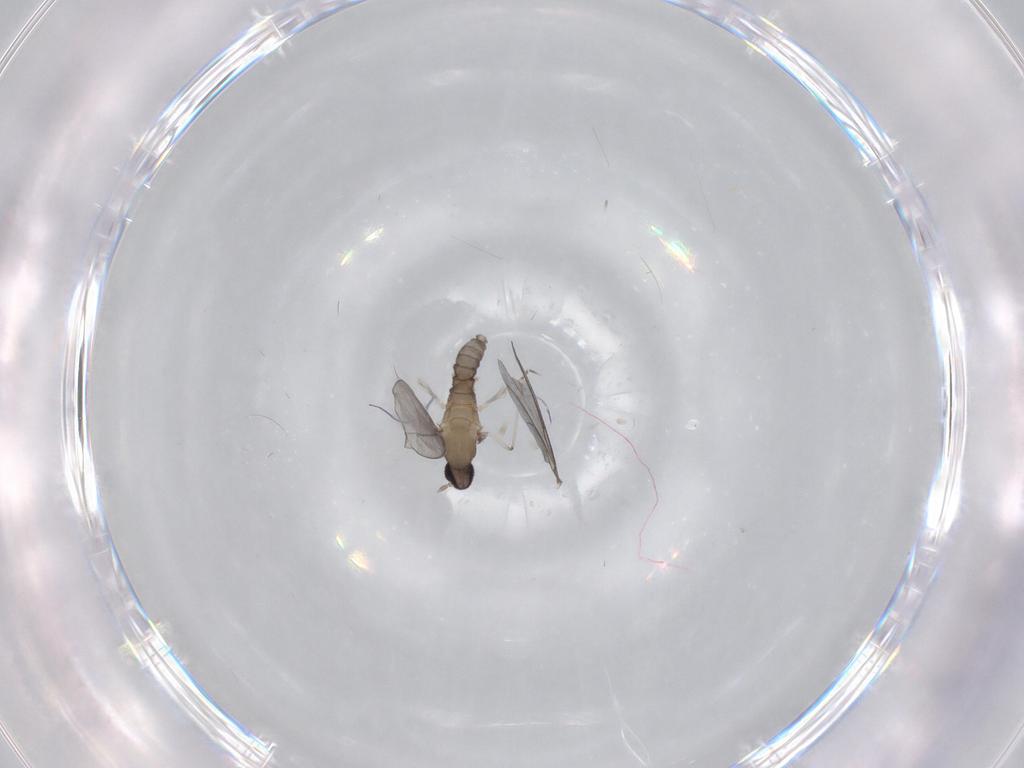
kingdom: Animalia
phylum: Arthropoda
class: Insecta
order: Diptera
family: Cecidomyiidae
